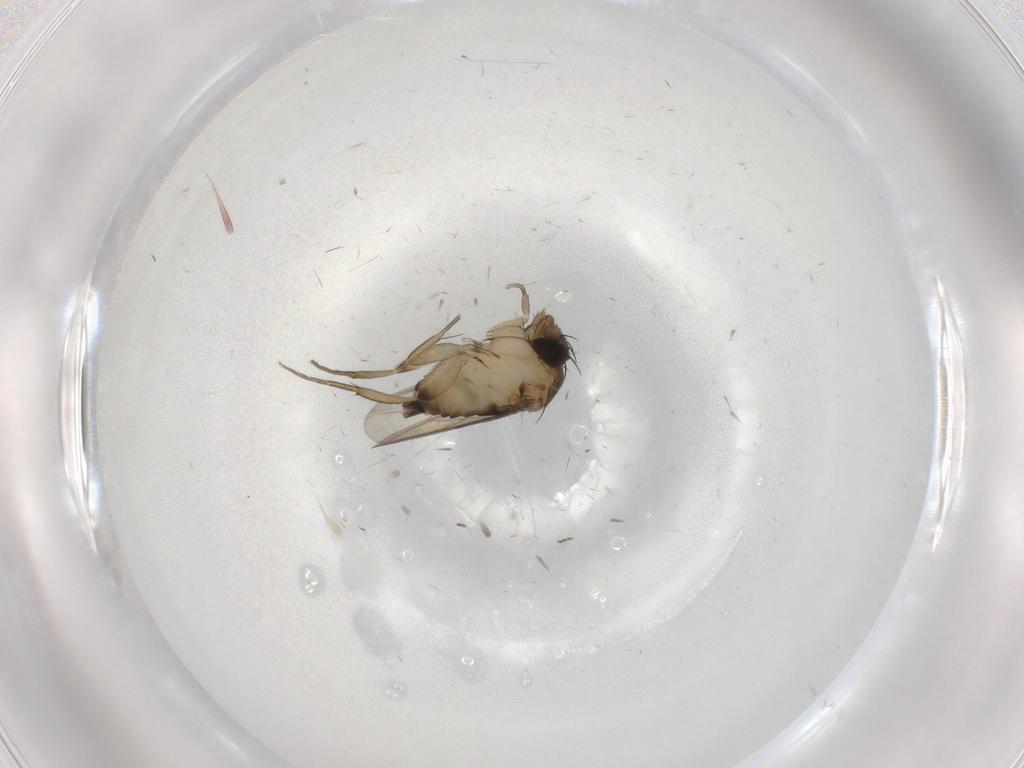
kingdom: Animalia
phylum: Arthropoda
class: Insecta
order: Diptera
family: Phoridae
